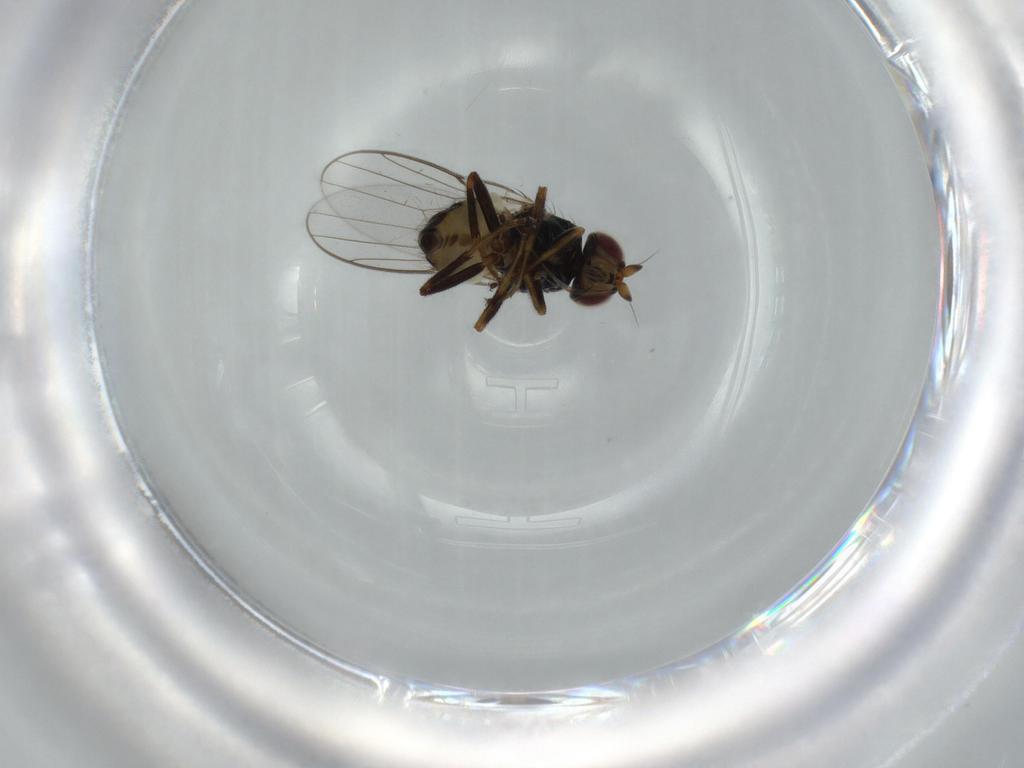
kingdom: Animalia
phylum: Arthropoda
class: Insecta
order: Diptera
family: Chloropidae
